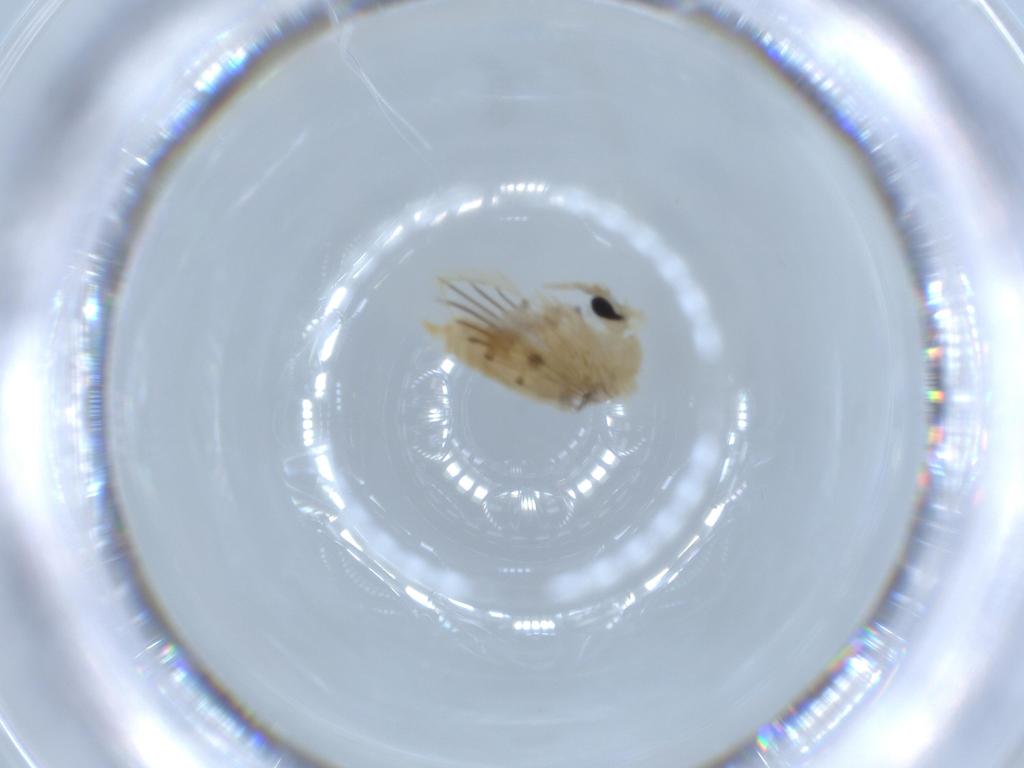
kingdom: Animalia
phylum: Arthropoda
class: Insecta
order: Diptera
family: Psychodidae
